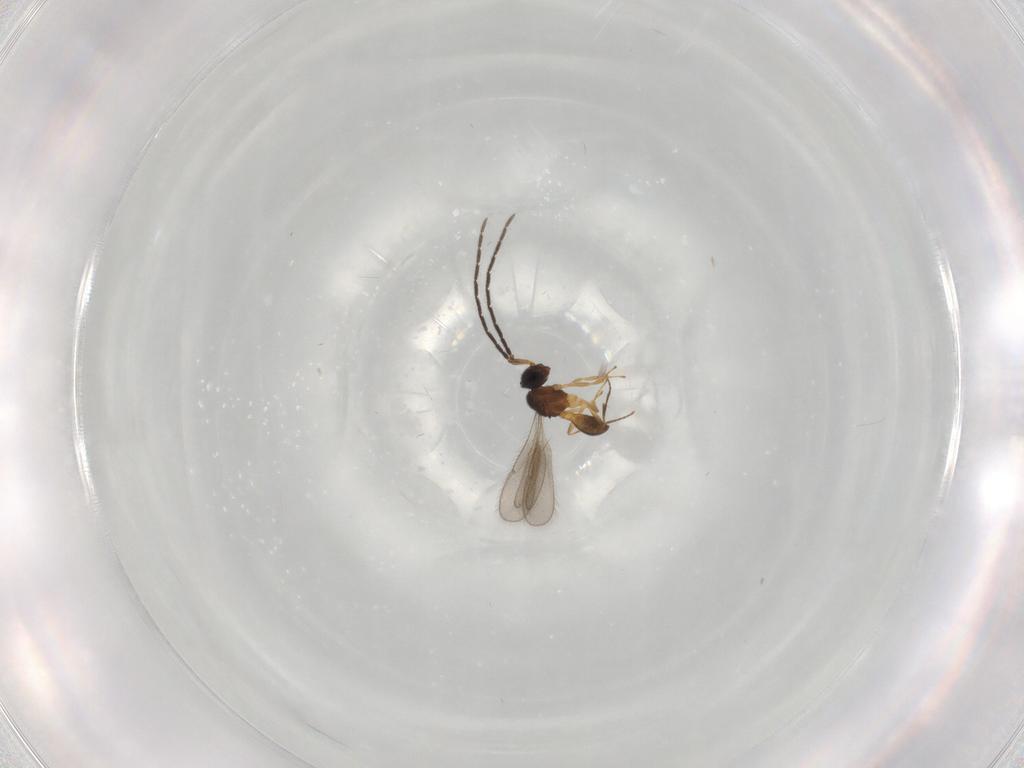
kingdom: Animalia
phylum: Arthropoda
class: Insecta
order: Hymenoptera
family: Scelionidae
